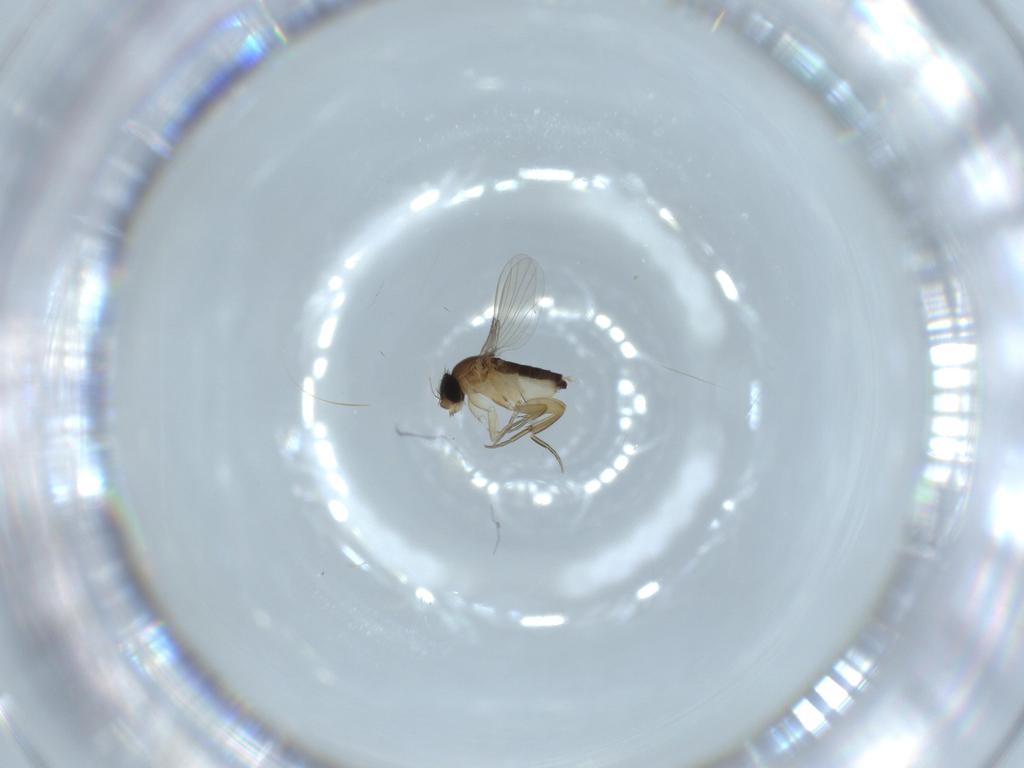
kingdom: Animalia
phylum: Arthropoda
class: Insecta
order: Diptera
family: Phoridae
